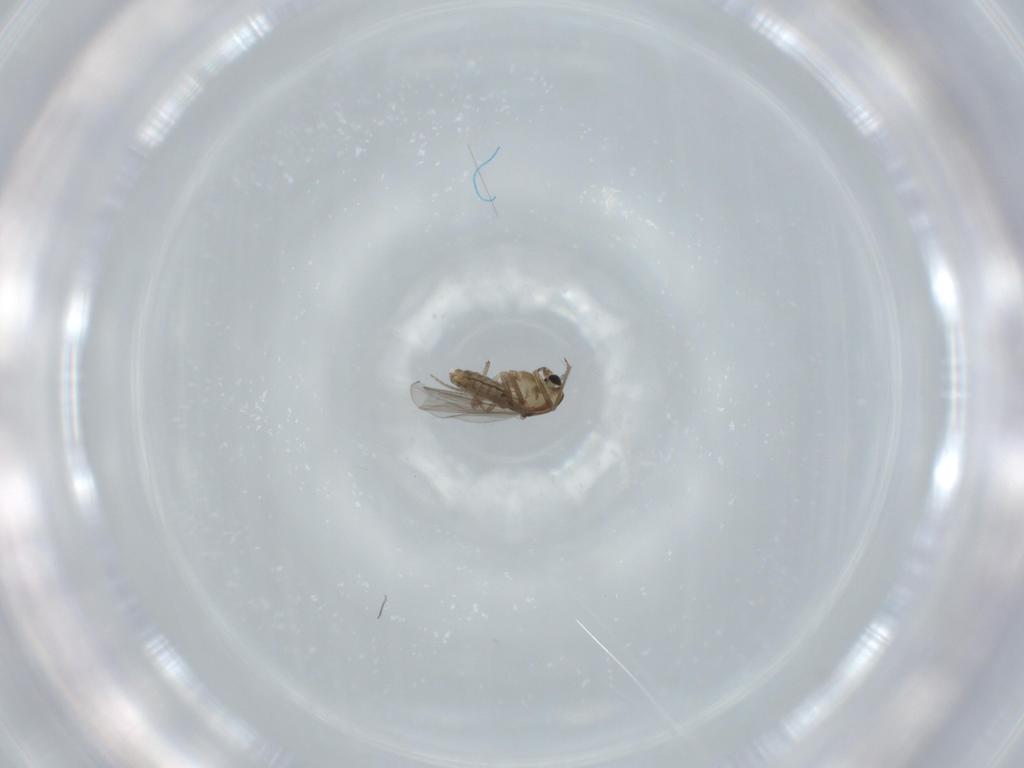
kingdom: Animalia
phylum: Arthropoda
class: Insecta
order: Diptera
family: Chironomidae
